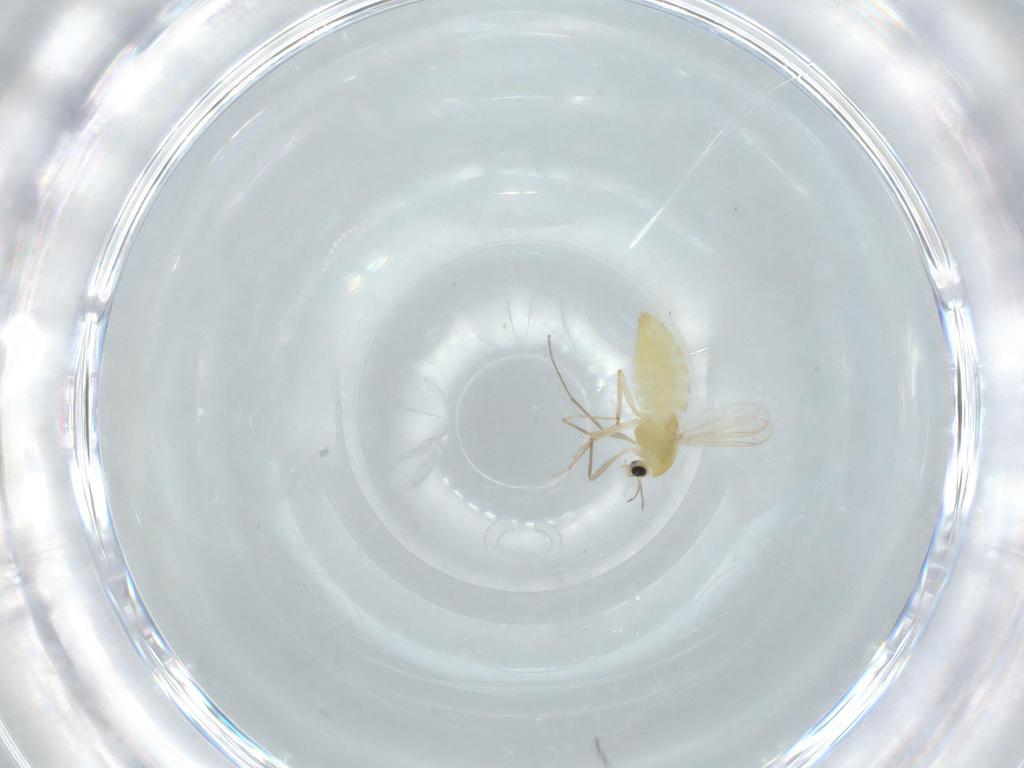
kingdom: Animalia
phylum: Arthropoda
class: Insecta
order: Diptera
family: Chironomidae
